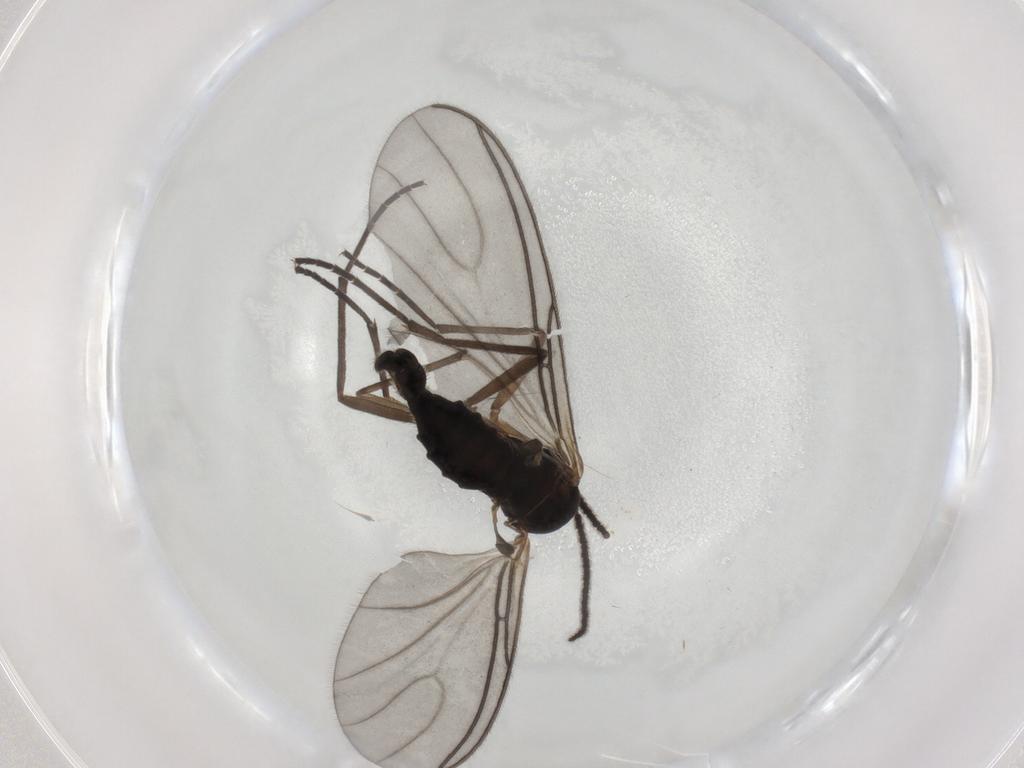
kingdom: Animalia
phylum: Arthropoda
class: Insecta
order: Diptera
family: Sciaridae
